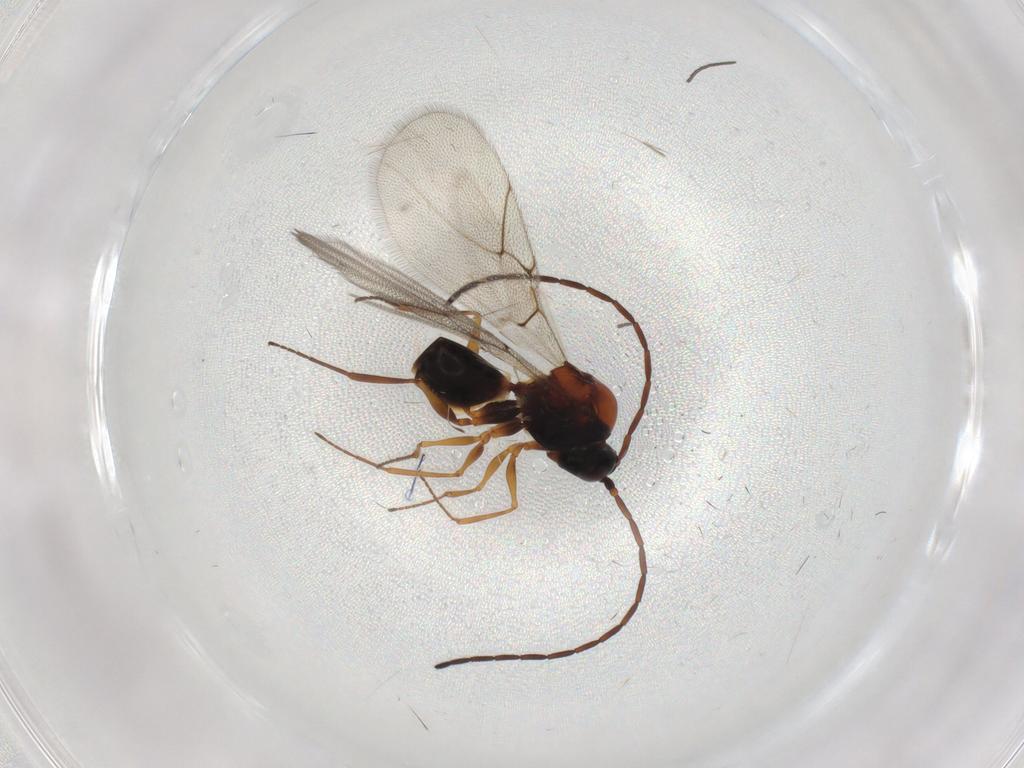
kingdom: Animalia
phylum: Arthropoda
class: Insecta
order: Hymenoptera
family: Figitidae
